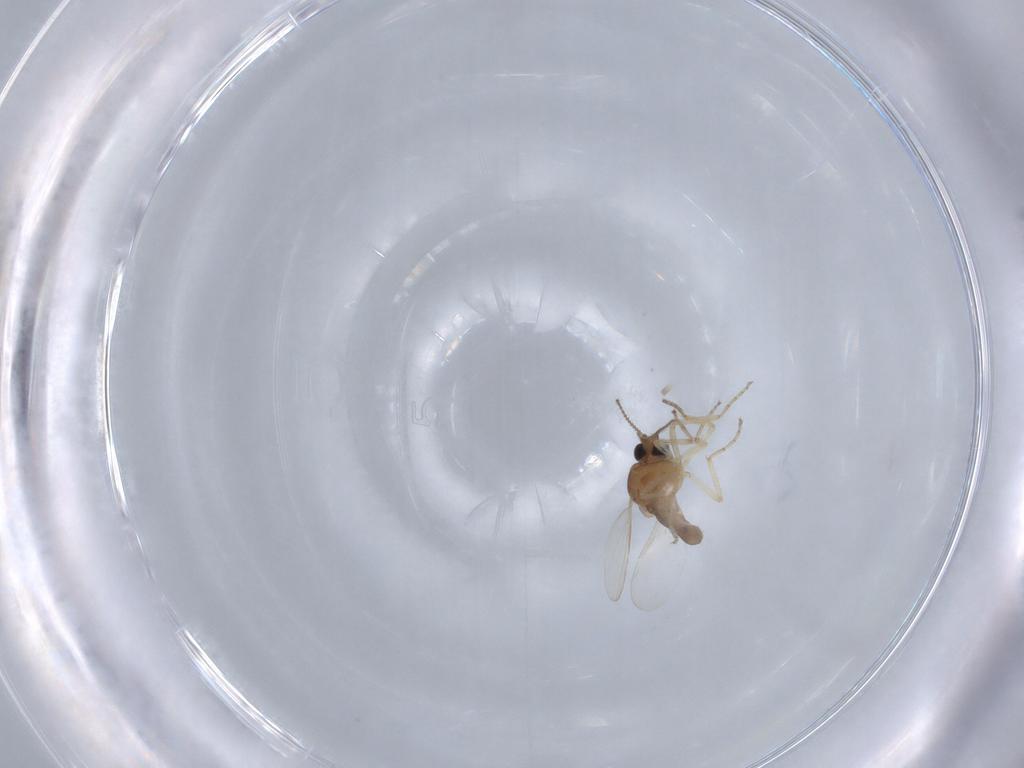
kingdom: Animalia
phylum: Arthropoda
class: Insecta
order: Diptera
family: Ceratopogonidae
